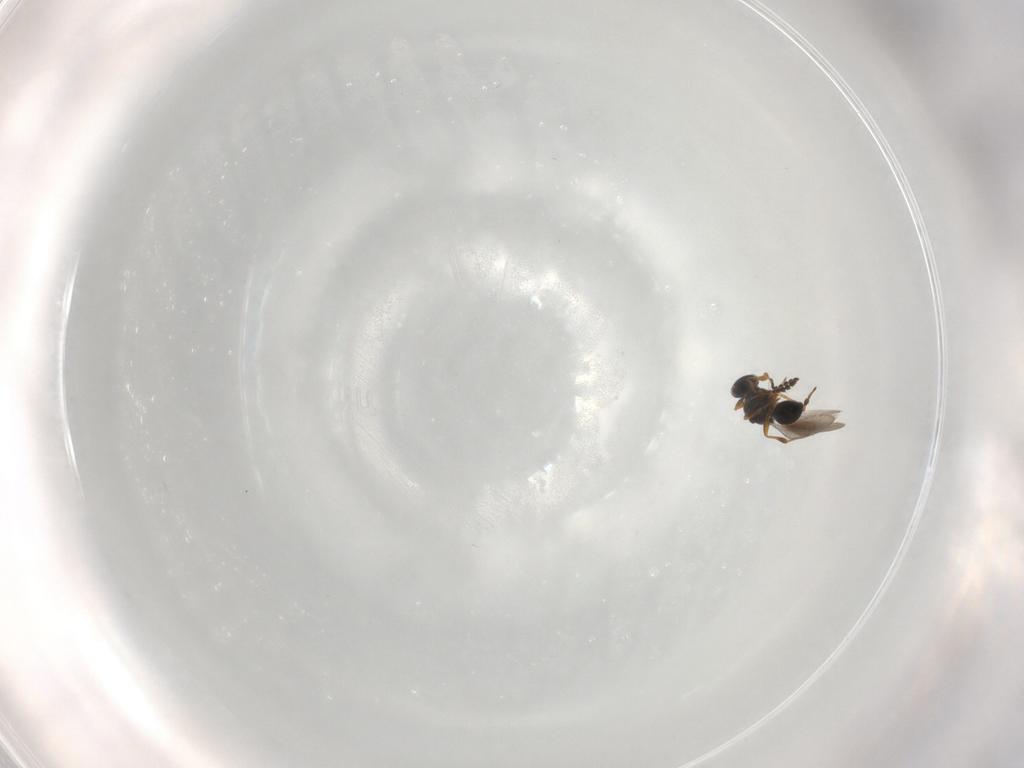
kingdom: Animalia
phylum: Arthropoda
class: Insecta
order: Hymenoptera
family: Platygastridae
